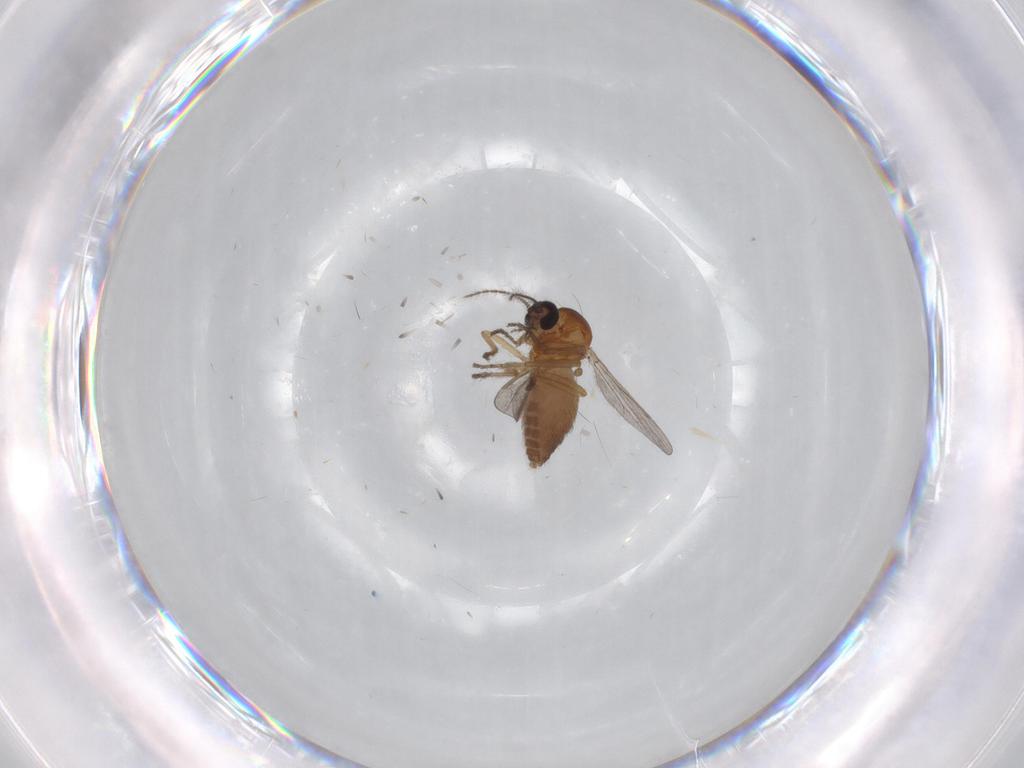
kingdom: Animalia
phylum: Arthropoda
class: Insecta
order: Diptera
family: Ceratopogonidae
